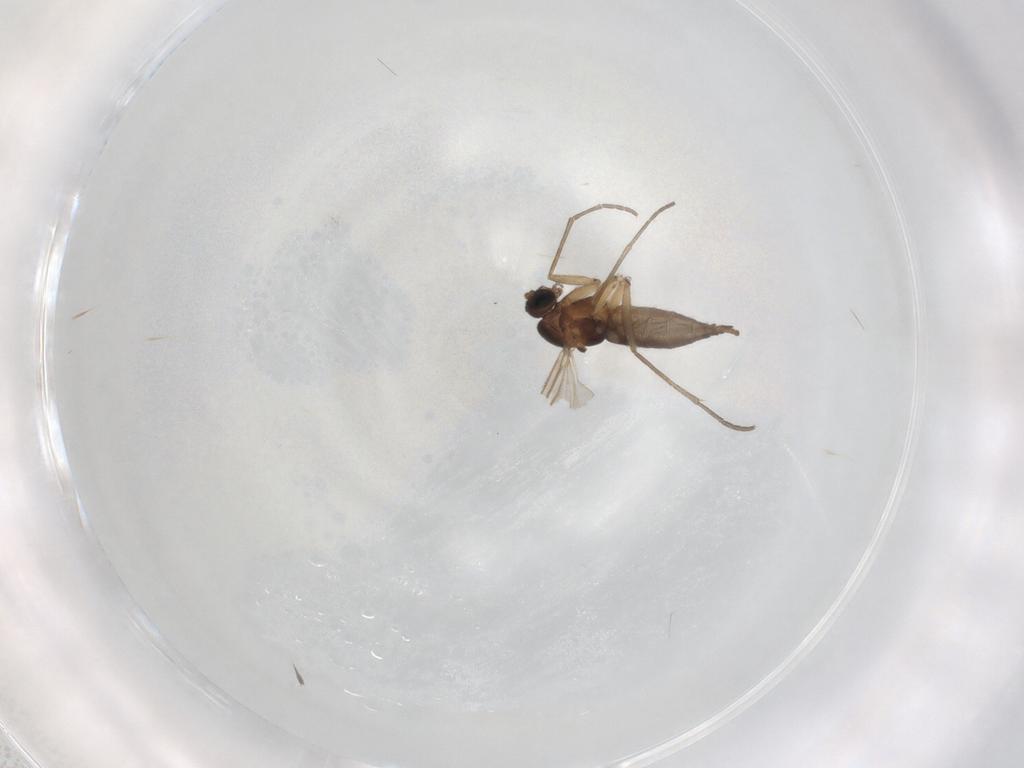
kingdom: Animalia
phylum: Arthropoda
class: Insecta
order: Diptera
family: Sciaridae
